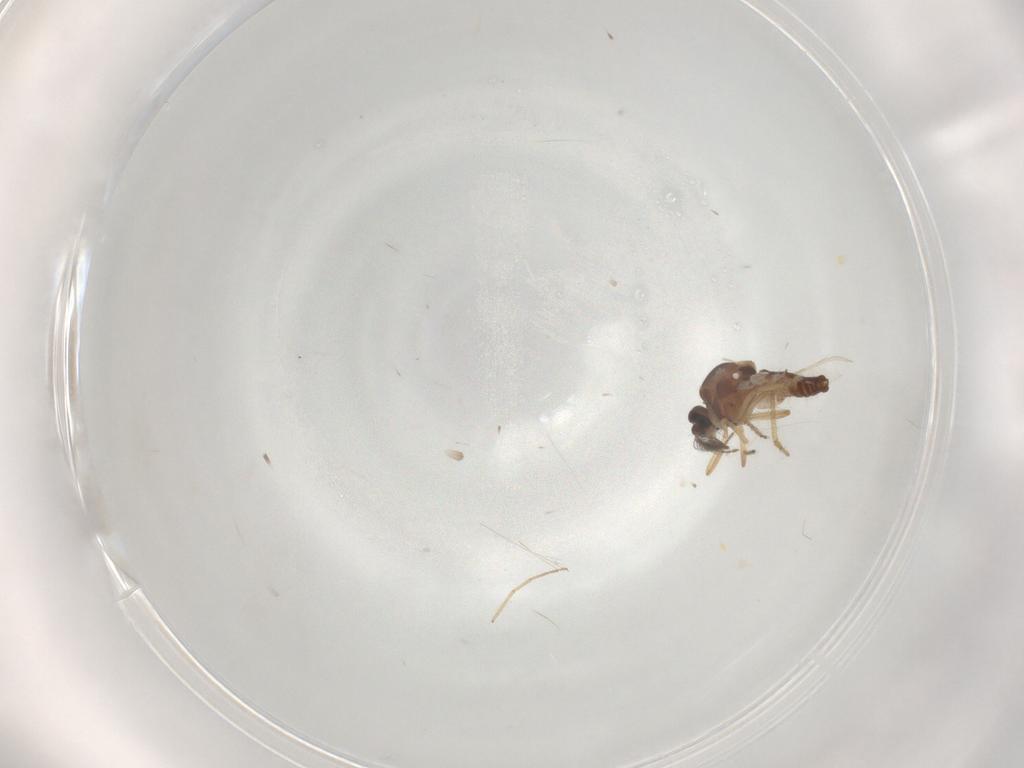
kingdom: Animalia
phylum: Arthropoda
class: Insecta
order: Diptera
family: Ceratopogonidae
